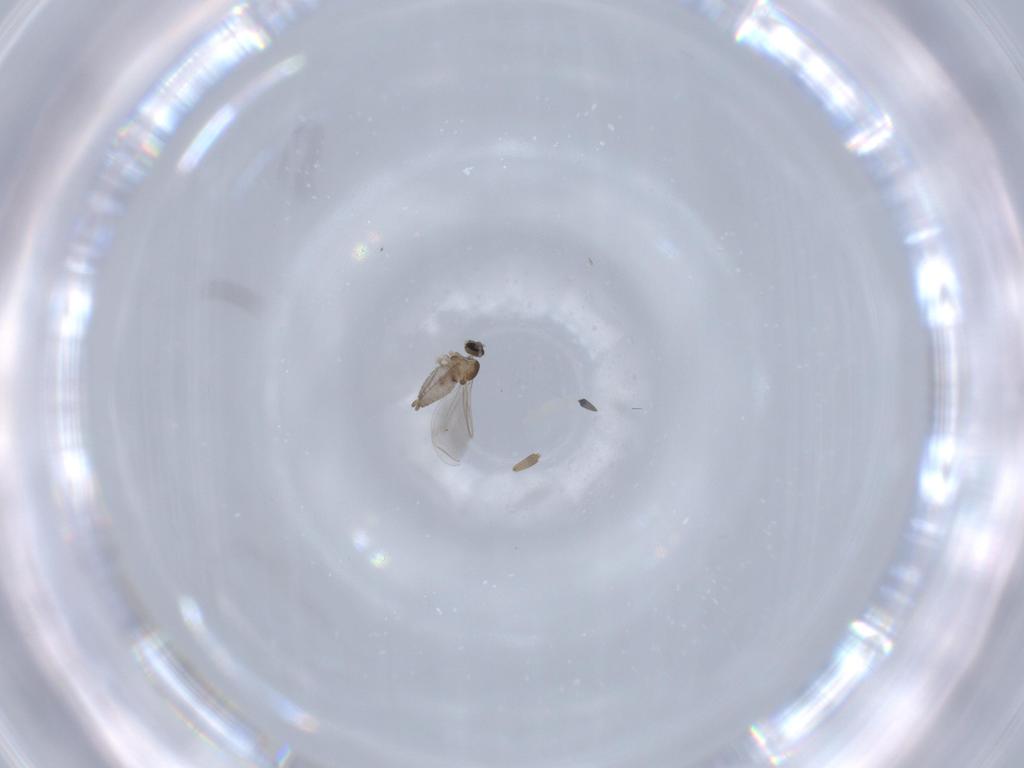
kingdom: Animalia
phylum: Arthropoda
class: Insecta
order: Diptera
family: Cecidomyiidae
